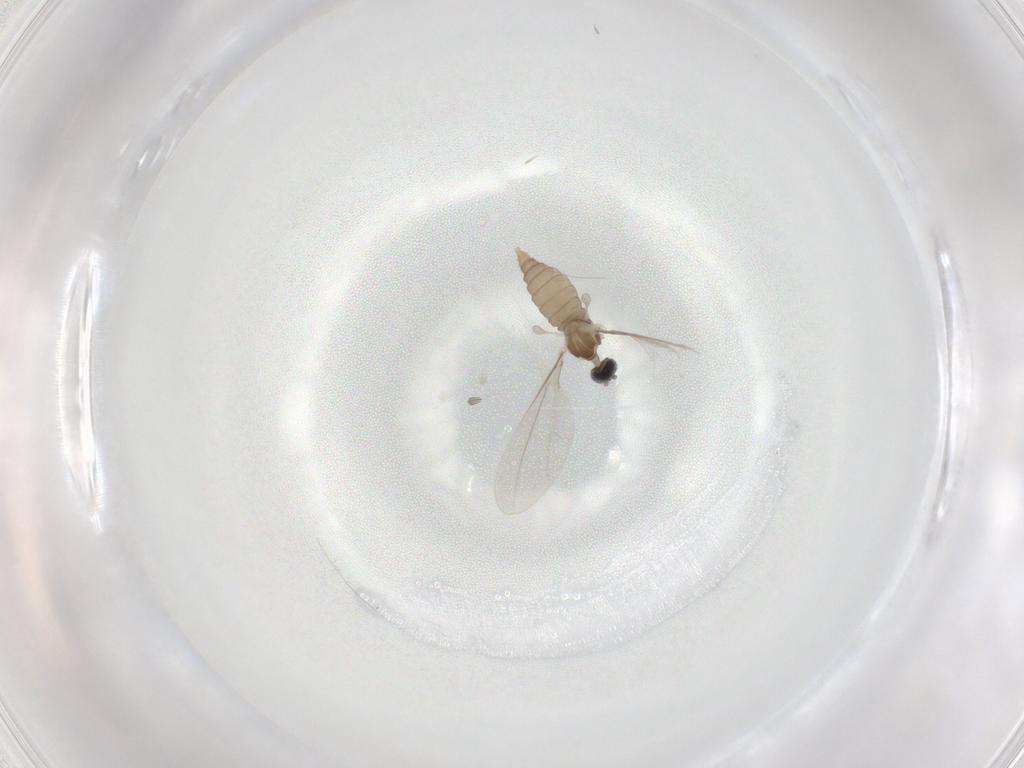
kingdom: Animalia
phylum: Arthropoda
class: Insecta
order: Diptera
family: Cecidomyiidae
